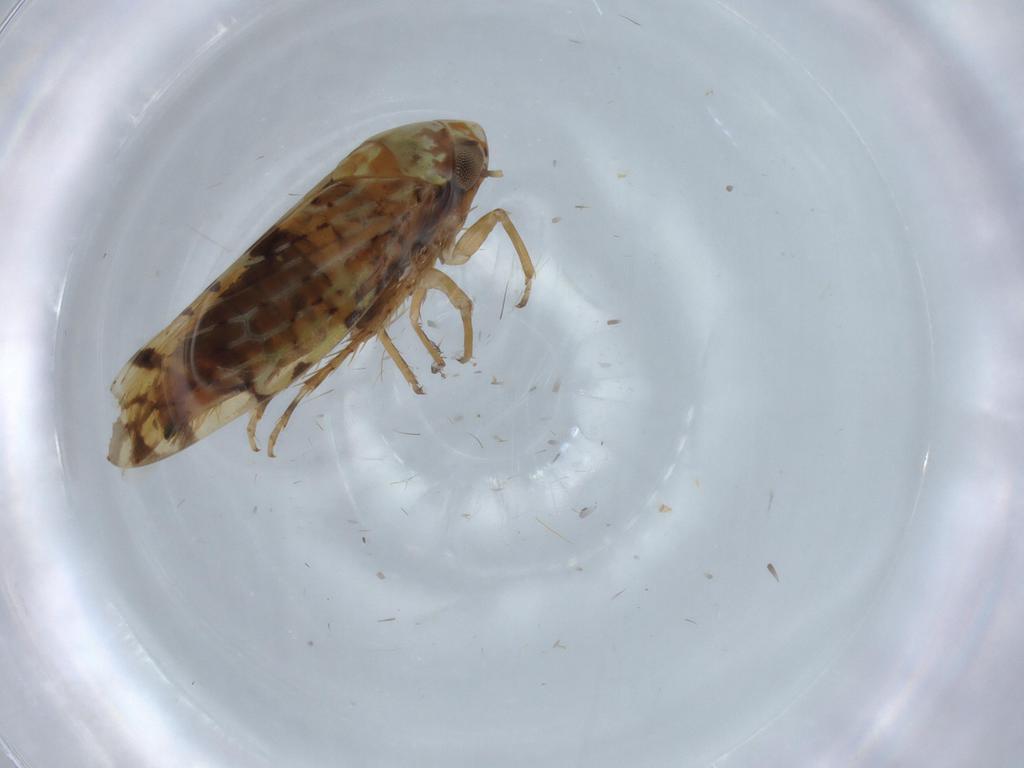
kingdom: Animalia
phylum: Arthropoda
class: Insecta
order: Hemiptera
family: Cicadellidae
